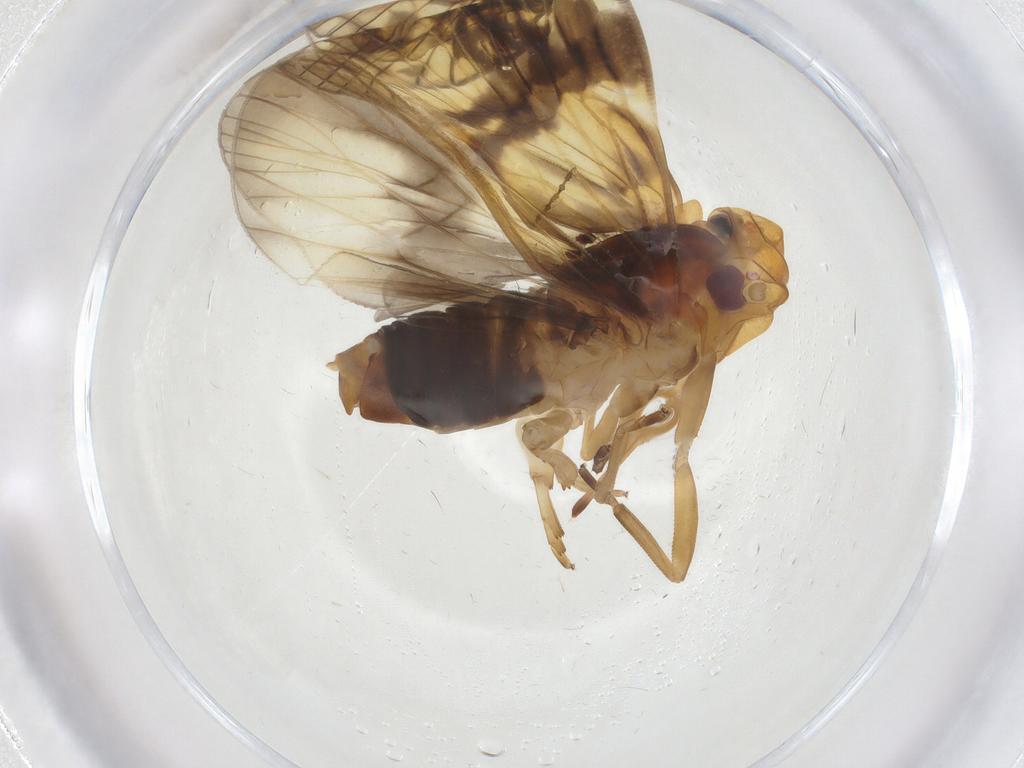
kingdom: Animalia
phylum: Arthropoda
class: Insecta
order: Hemiptera
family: Cixiidae
